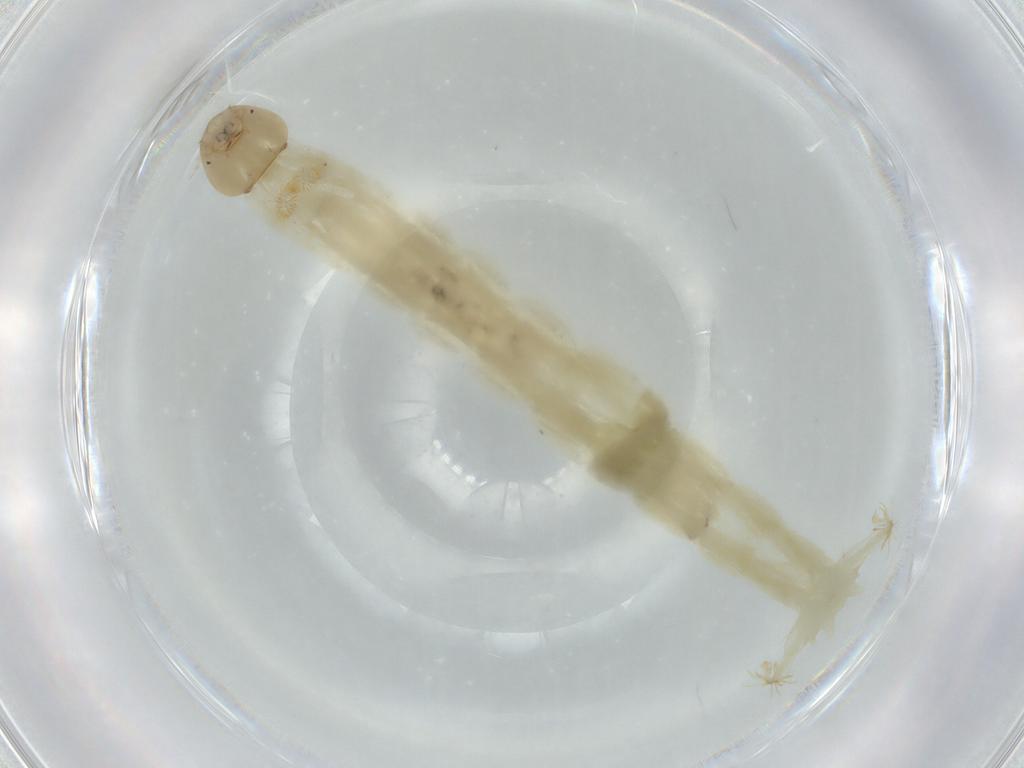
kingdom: Animalia
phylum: Arthropoda
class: Insecta
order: Diptera
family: Chironomidae
